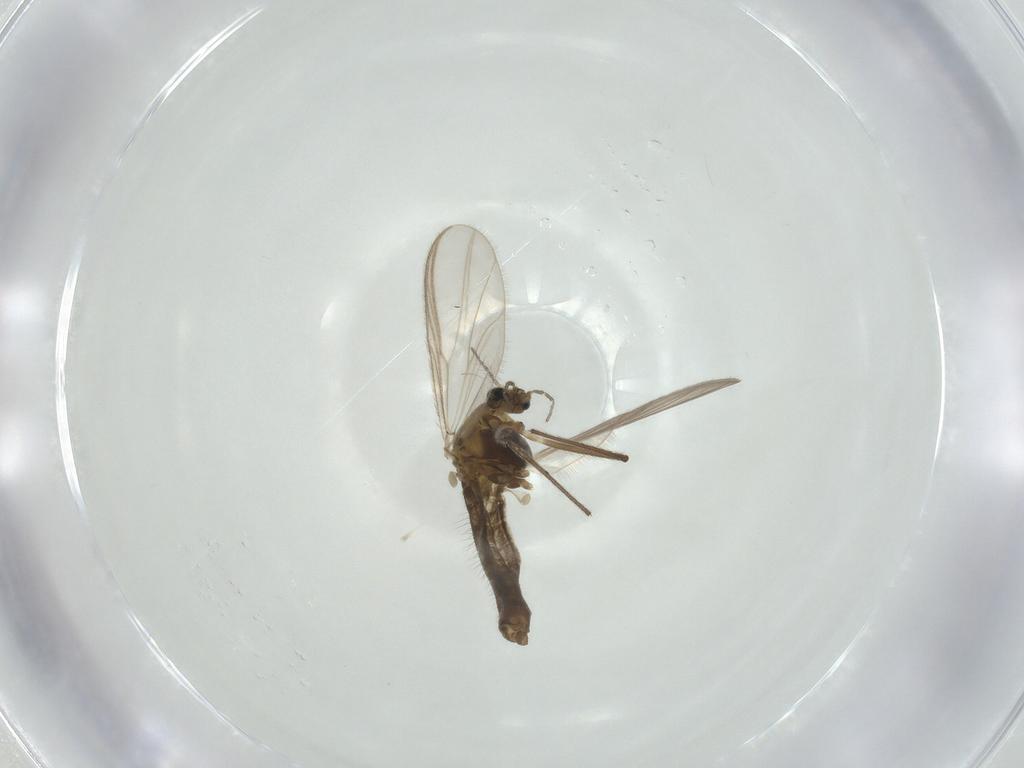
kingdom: Animalia
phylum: Arthropoda
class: Insecta
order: Diptera
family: Chironomidae
